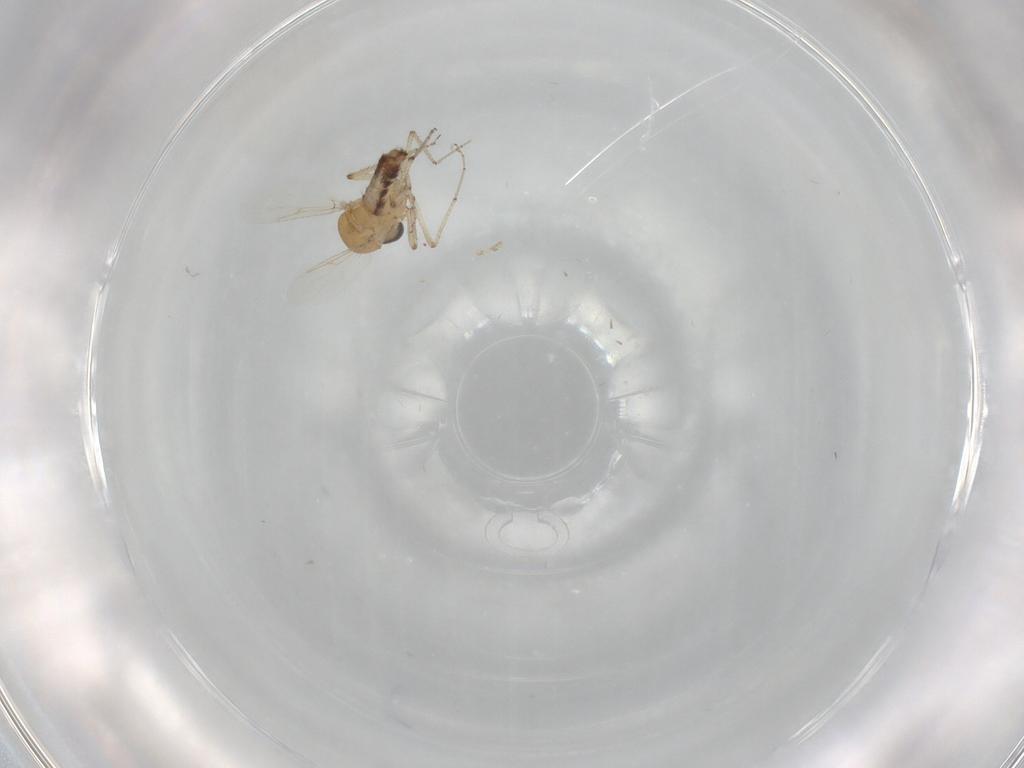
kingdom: Animalia
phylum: Arthropoda
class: Insecta
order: Diptera
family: Ceratopogonidae
